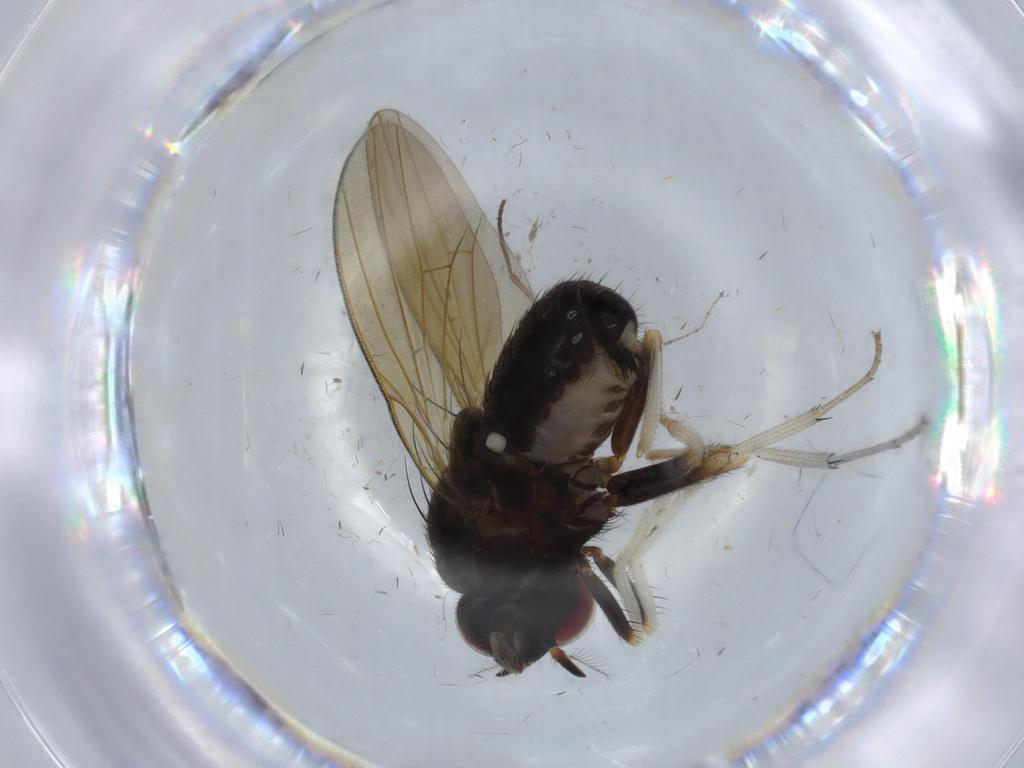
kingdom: Animalia
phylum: Arthropoda
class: Insecta
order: Diptera
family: Ceratopogonidae
